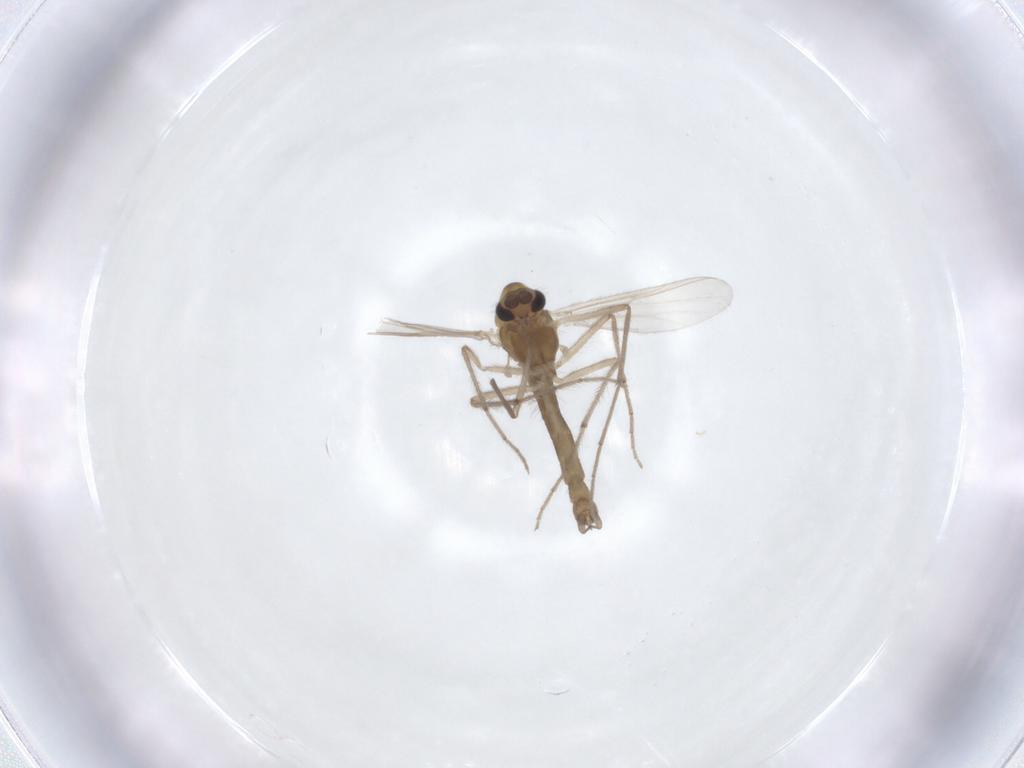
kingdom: Animalia
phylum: Arthropoda
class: Insecta
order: Diptera
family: Chironomidae
